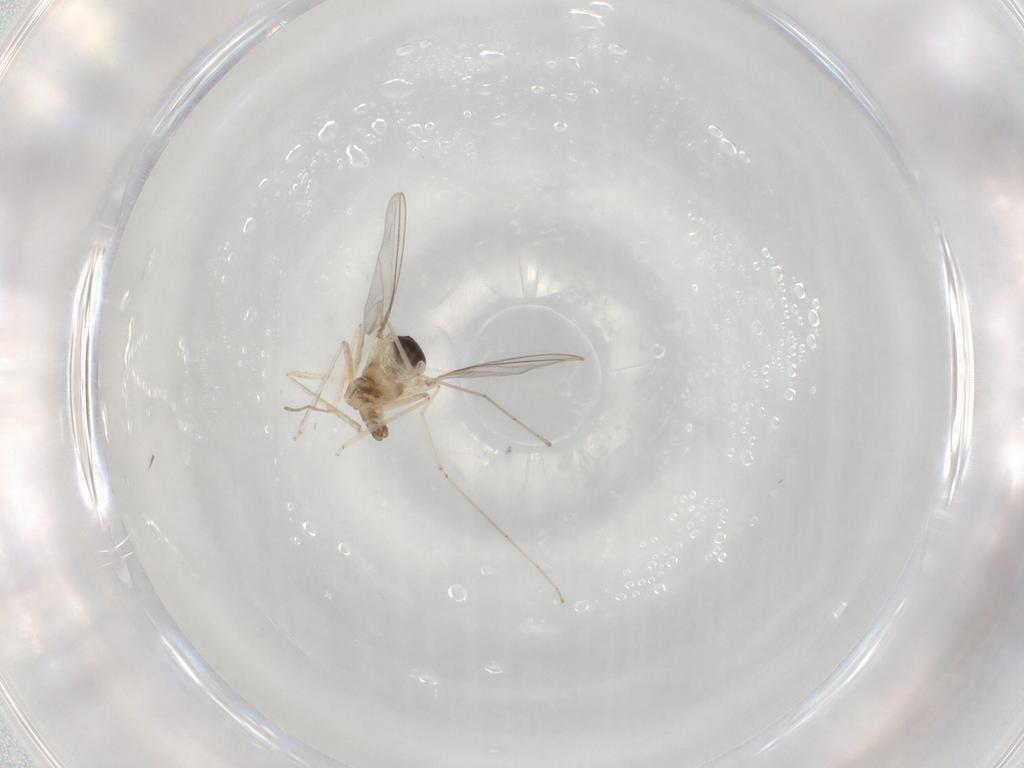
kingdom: Animalia
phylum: Arthropoda
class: Insecta
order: Diptera
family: Cecidomyiidae
